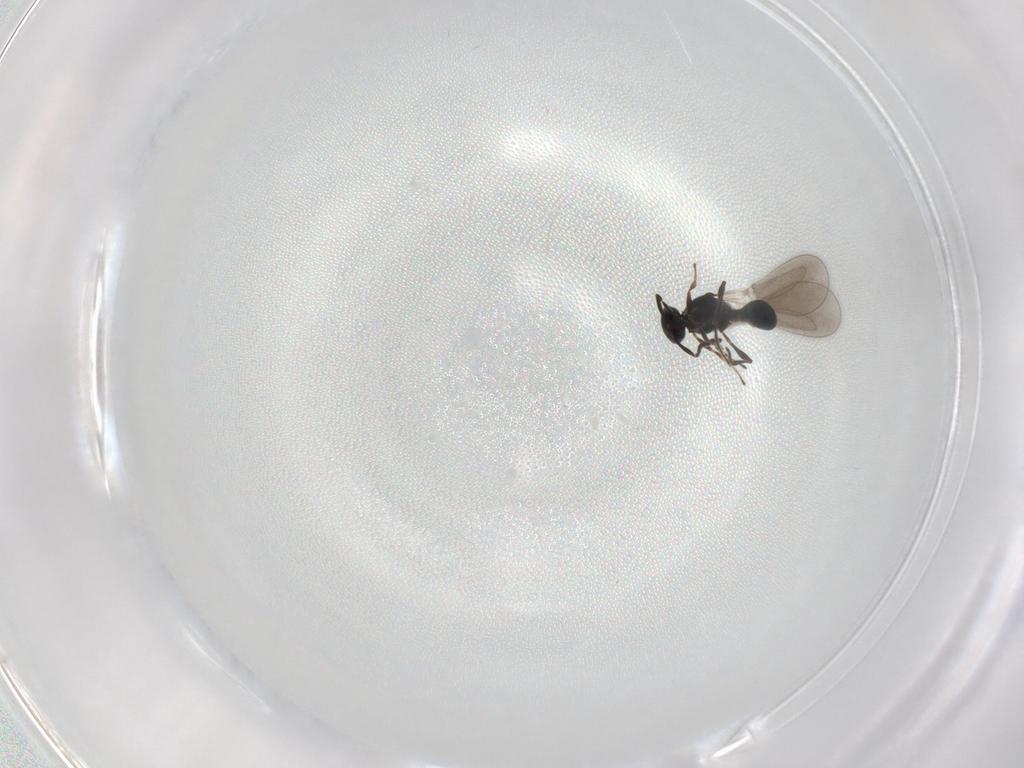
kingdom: Animalia
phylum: Arthropoda
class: Insecta
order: Hymenoptera
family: Platygastridae
